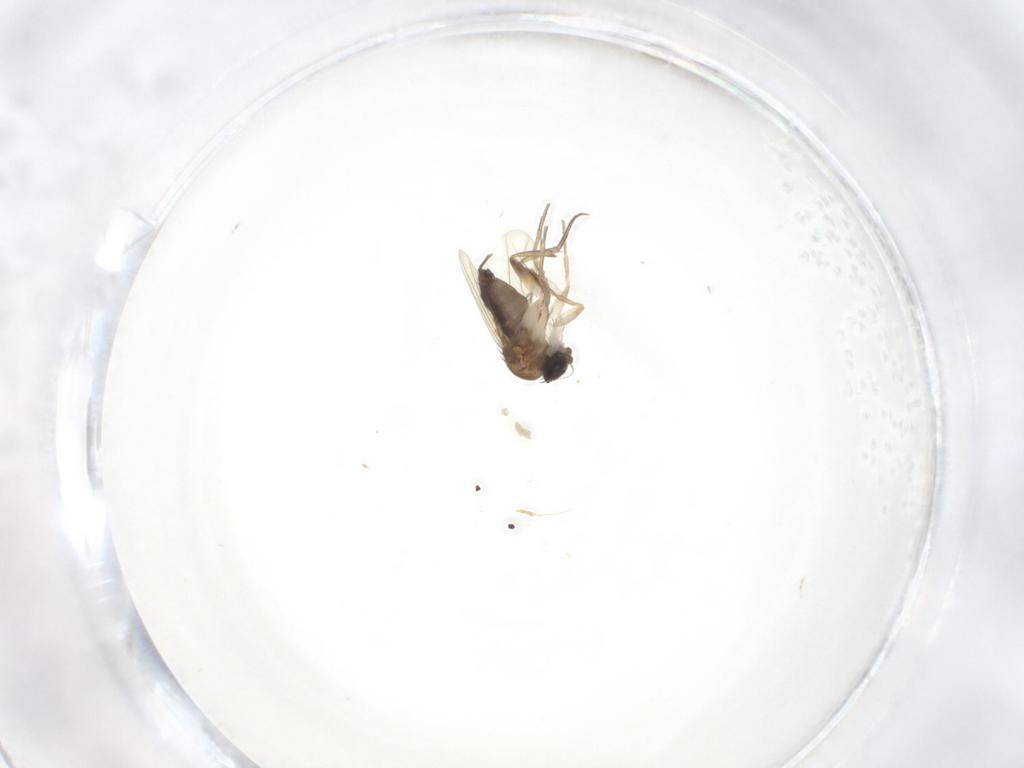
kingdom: Animalia
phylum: Arthropoda
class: Insecta
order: Diptera
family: Phoridae
